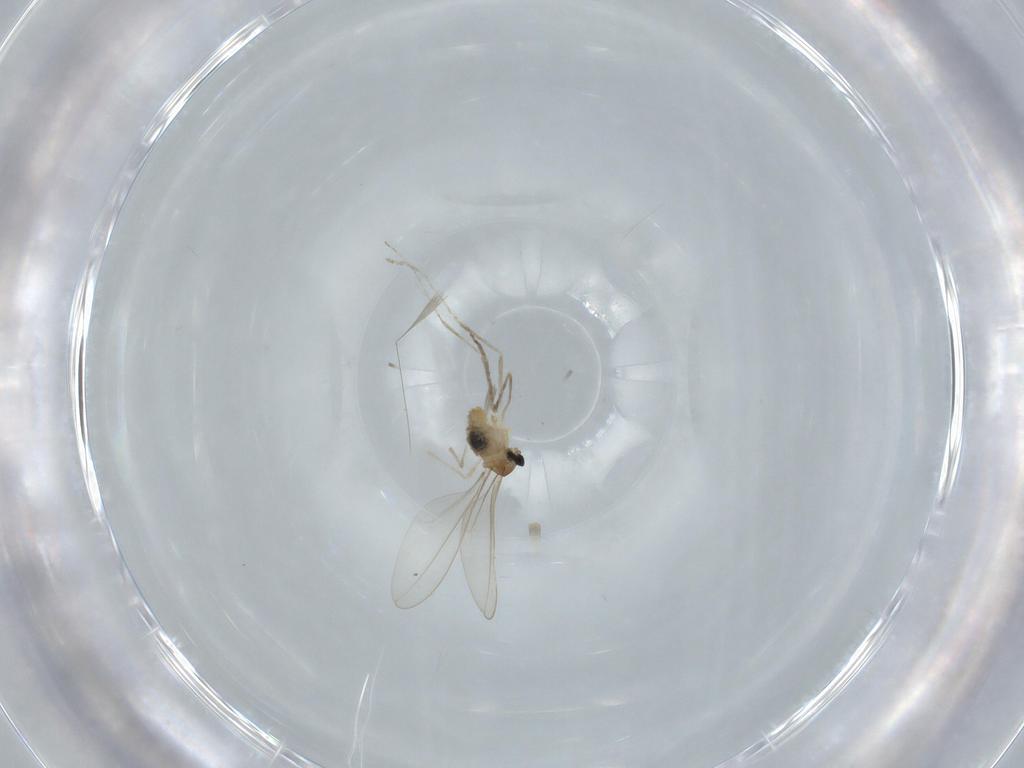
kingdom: Animalia
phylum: Arthropoda
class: Insecta
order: Diptera
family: Cecidomyiidae
